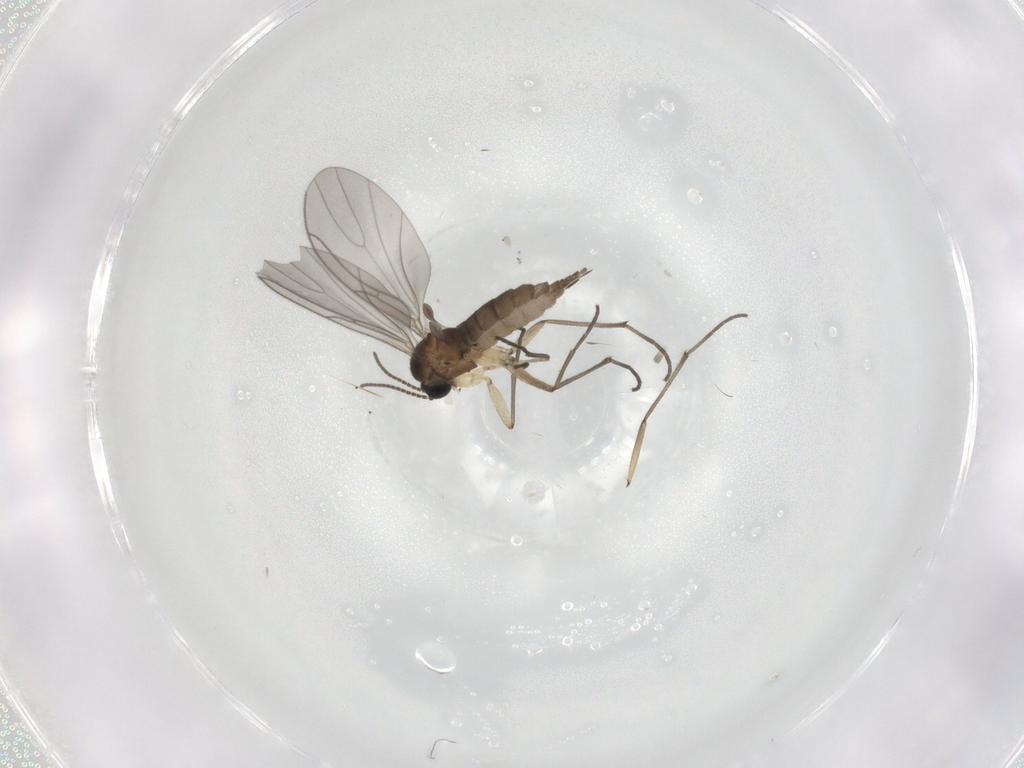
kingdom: Animalia
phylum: Arthropoda
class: Insecta
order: Diptera
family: Sciaridae
